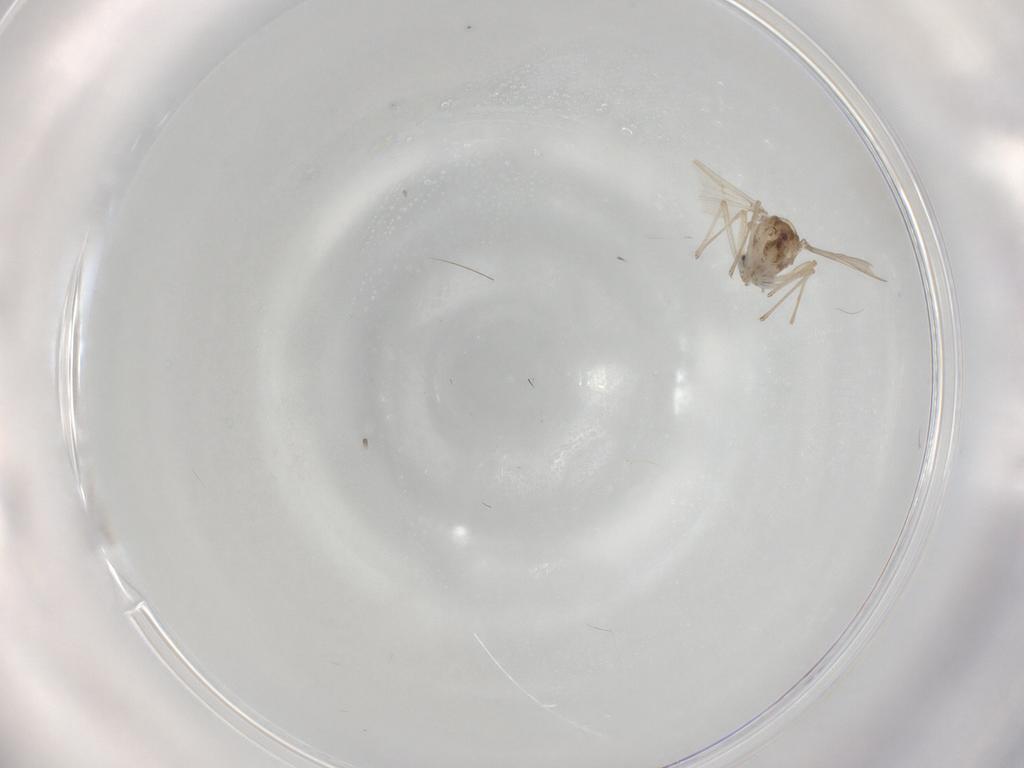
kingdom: Animalia
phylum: Arthropoda
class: Insecta
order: Diptera
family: Chironomidae
